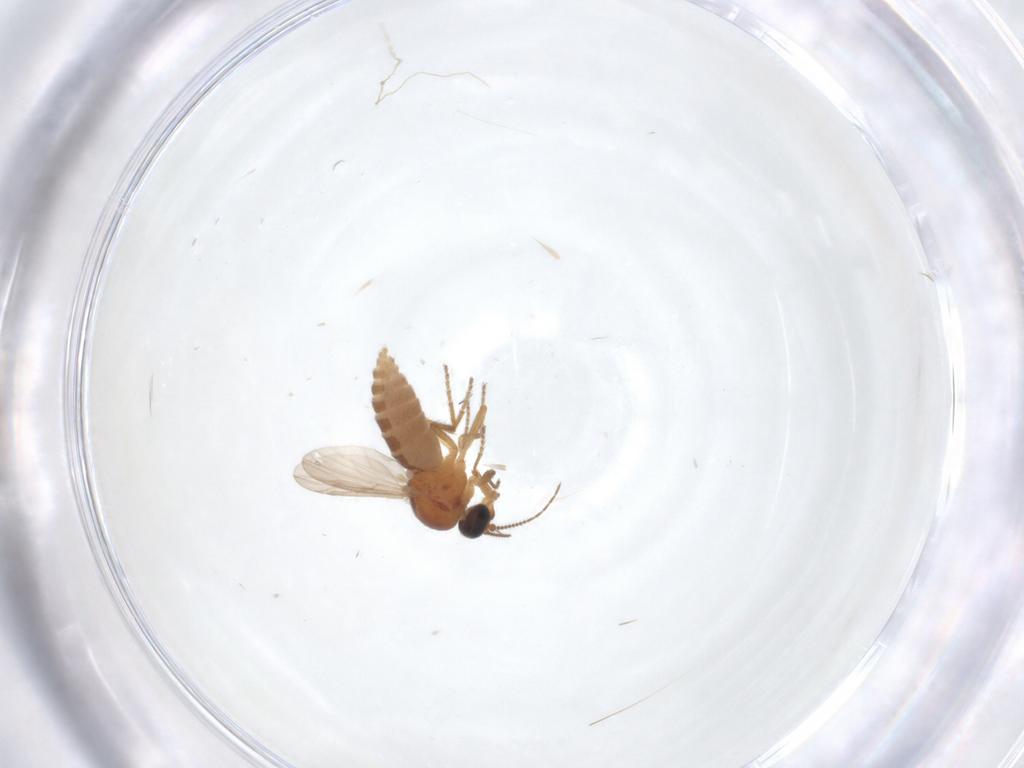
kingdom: Animalia
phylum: Arthropoda
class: Insecta
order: Diptera
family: Ceratopogonidae
